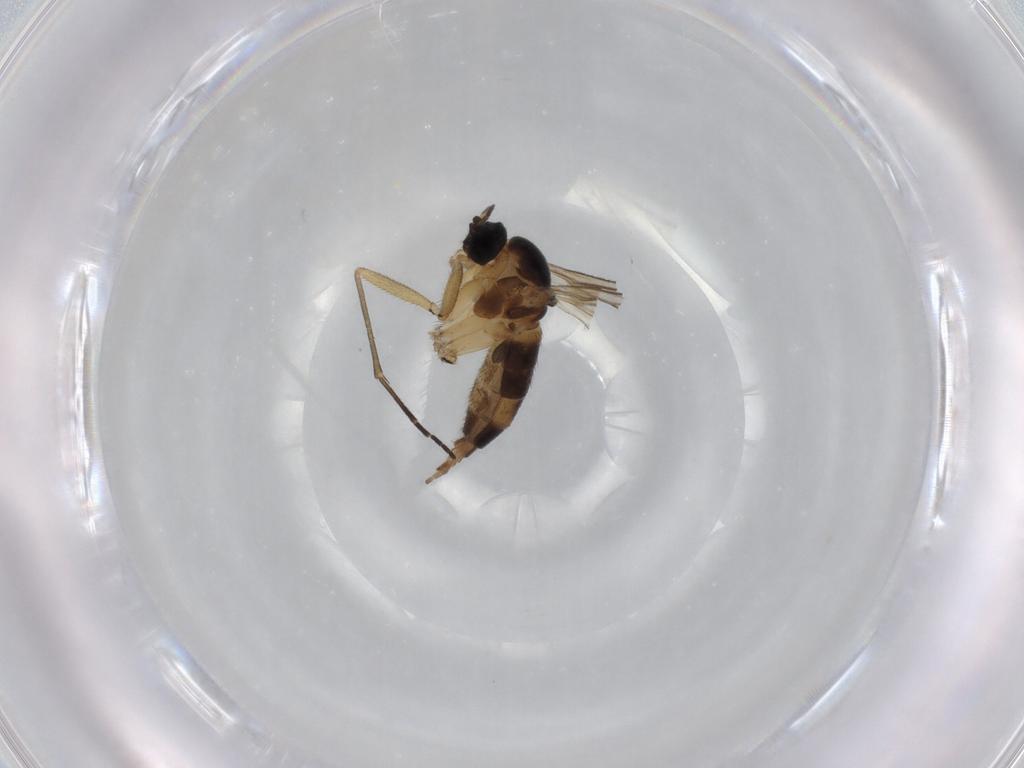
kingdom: Animalia
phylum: Arthropoda
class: Insecta
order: Diptera
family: Sciaridae
